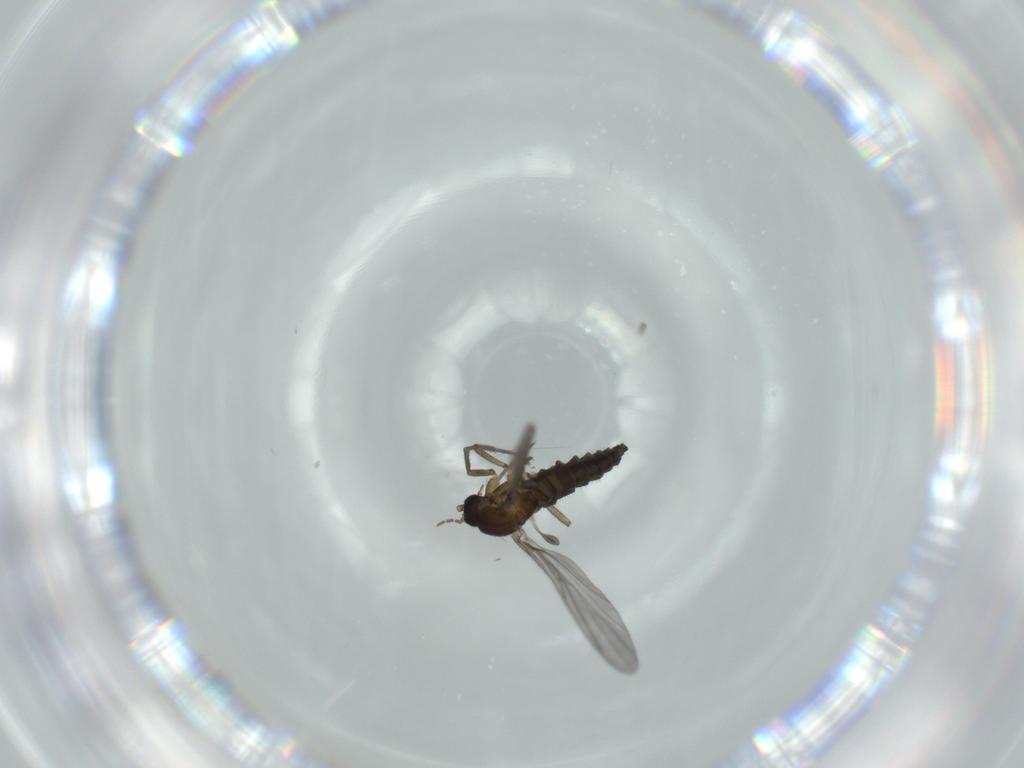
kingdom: Animalia
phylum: Arthropoda
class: Insecta
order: Diptera
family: Sciaridae
